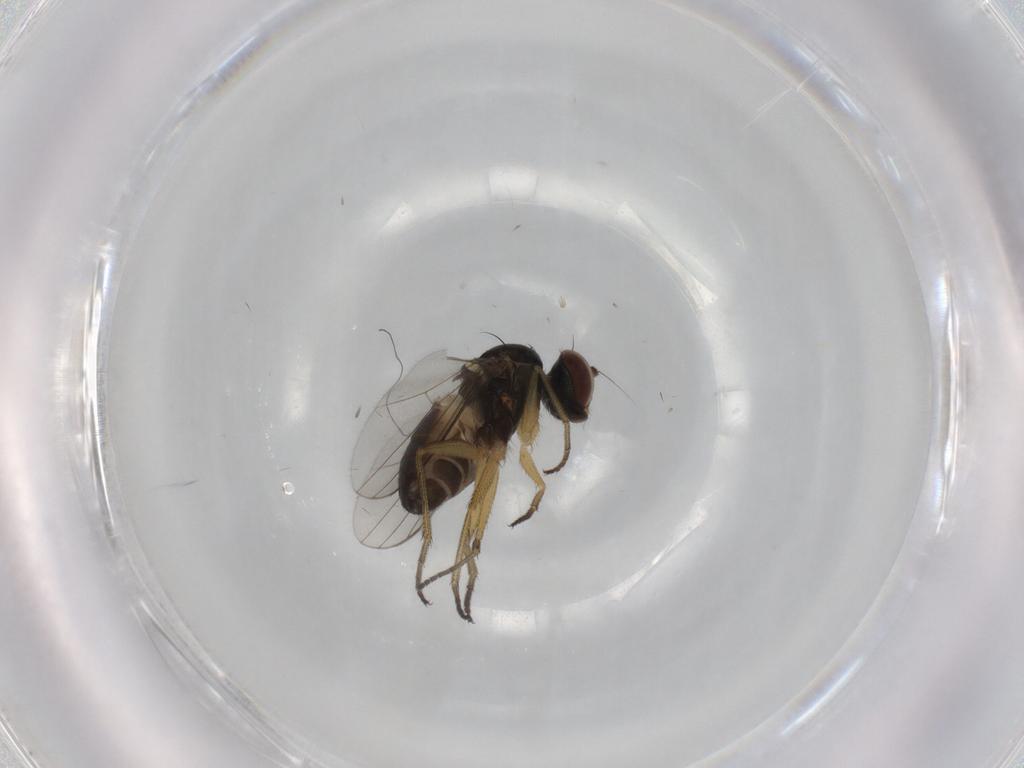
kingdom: Animalia
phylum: Arthropoda
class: Insecta
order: Diptera
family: Dolichopodidae
